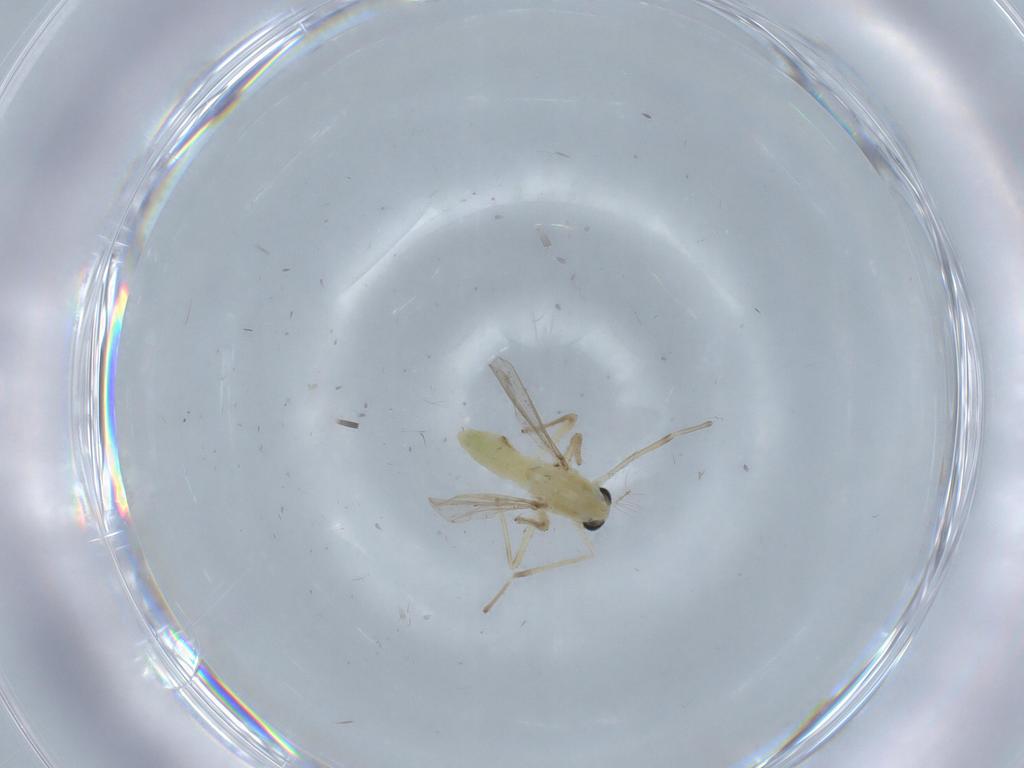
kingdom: Animalia
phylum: Arthropoda
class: Insecta
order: Diptera
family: Chironomidae
